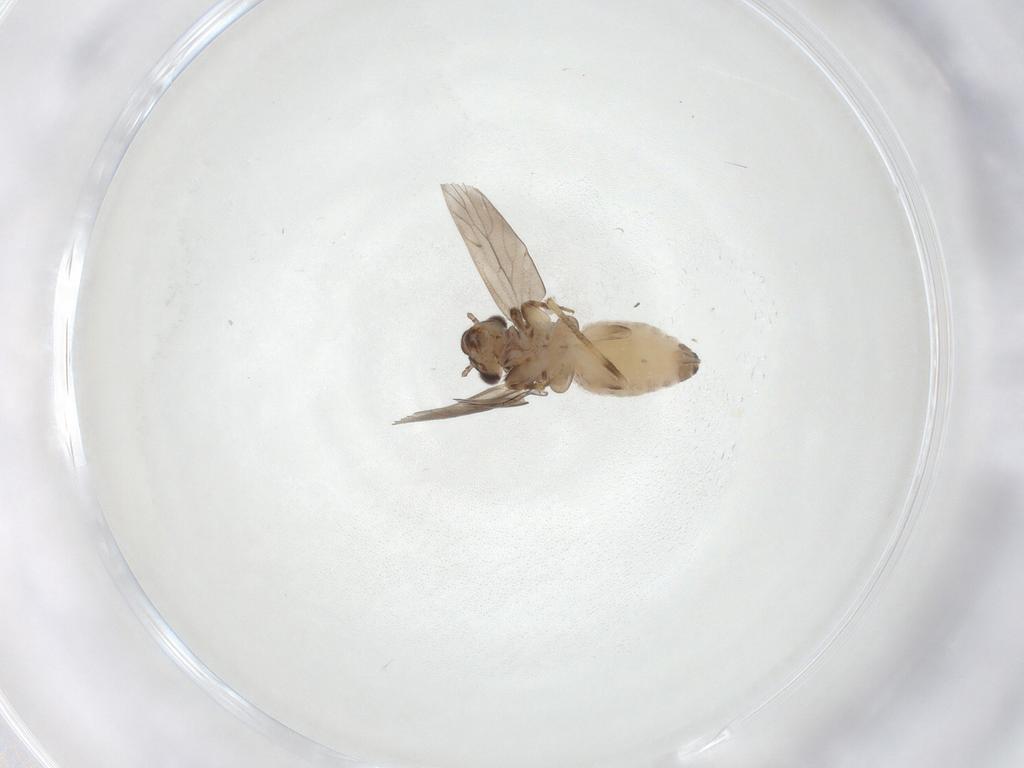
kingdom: Animalia
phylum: Arthropoda
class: Insecta
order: Psocodea
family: Lepidopsocidae
